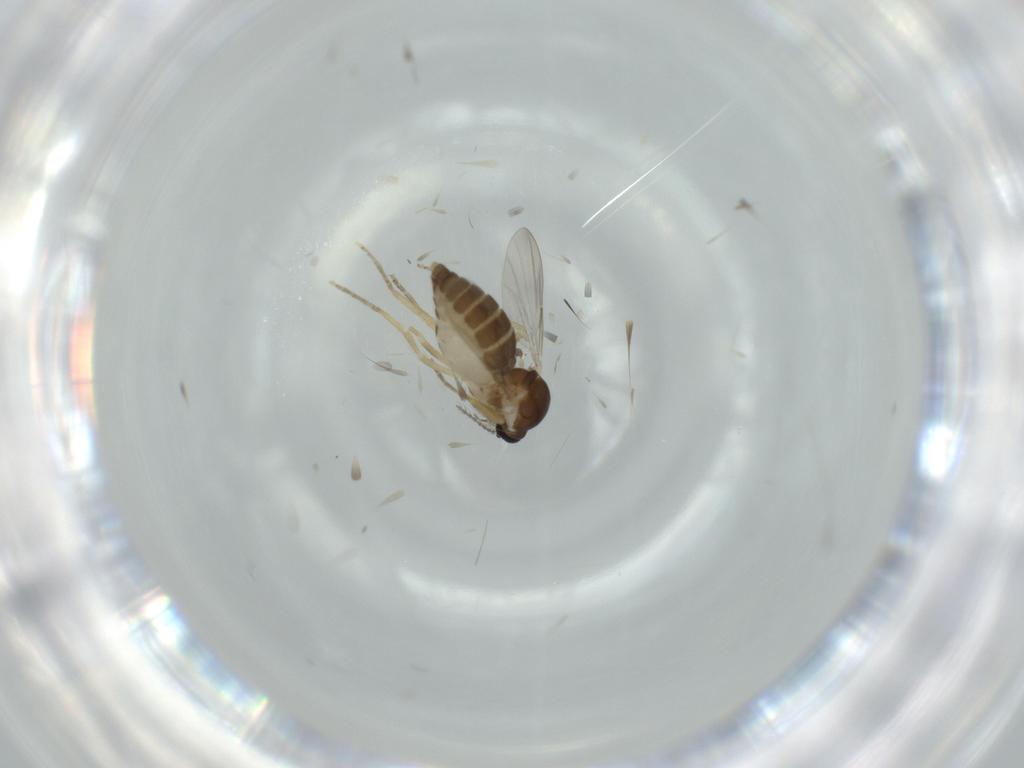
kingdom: Animalia
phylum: Arthropoda
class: Insecta
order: Diptera
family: Ceratopogonidae
